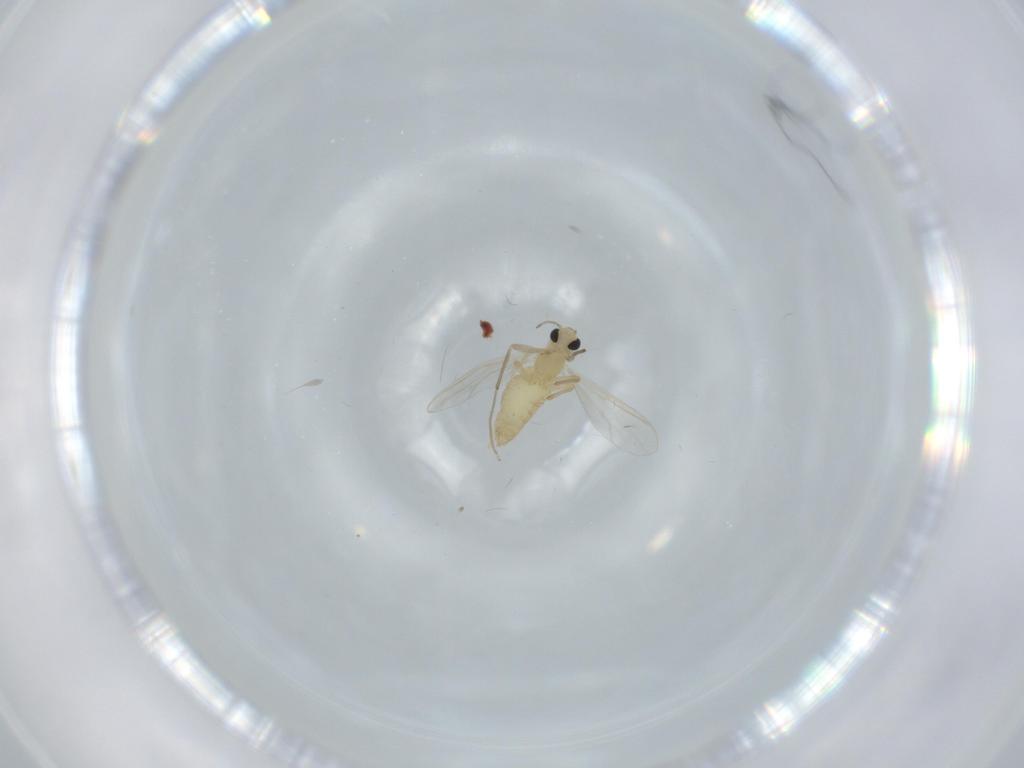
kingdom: Animalia
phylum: Arthropoda
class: Insecta
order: Diptera
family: Chironomidae
